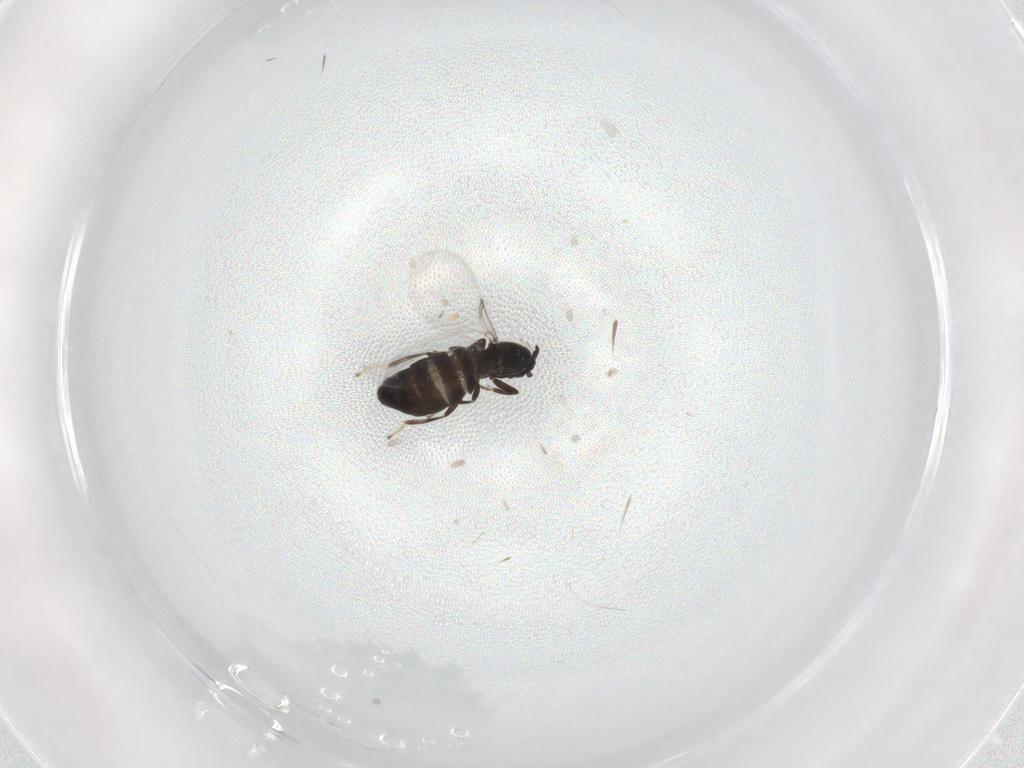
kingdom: Animalia
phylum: Arthropoda
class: Insecta
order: Diptera
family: Scatopsidae
